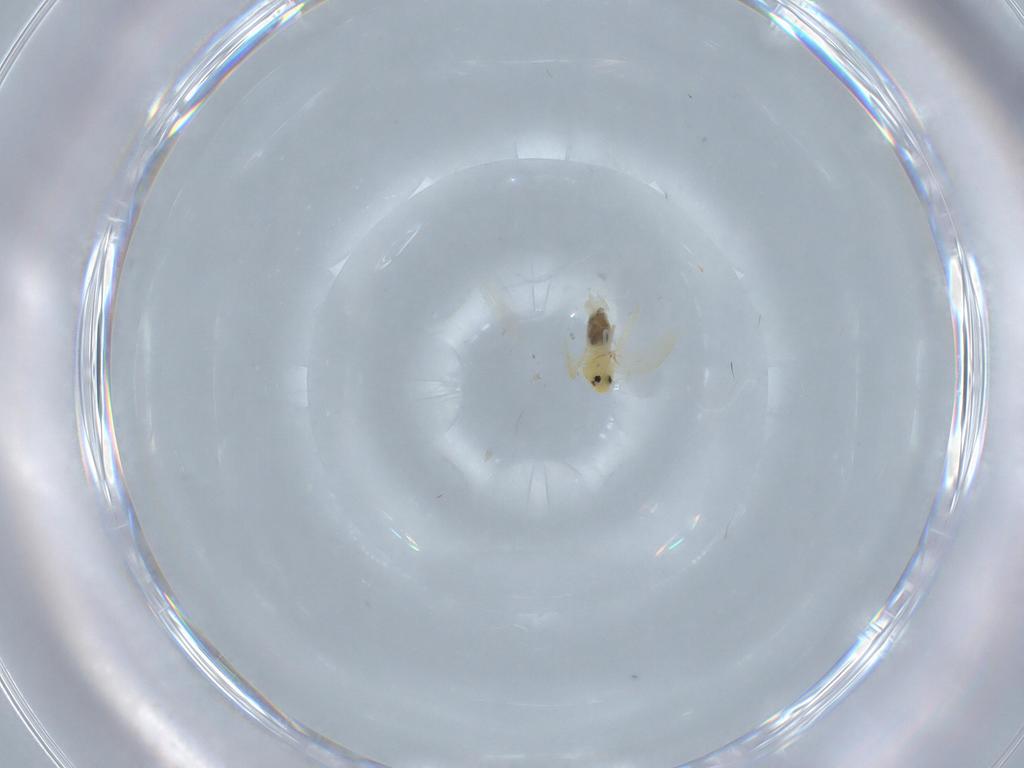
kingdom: Animalia
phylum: Arthropoda
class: Insecta
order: Hemiptera
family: Aleyrodidae
